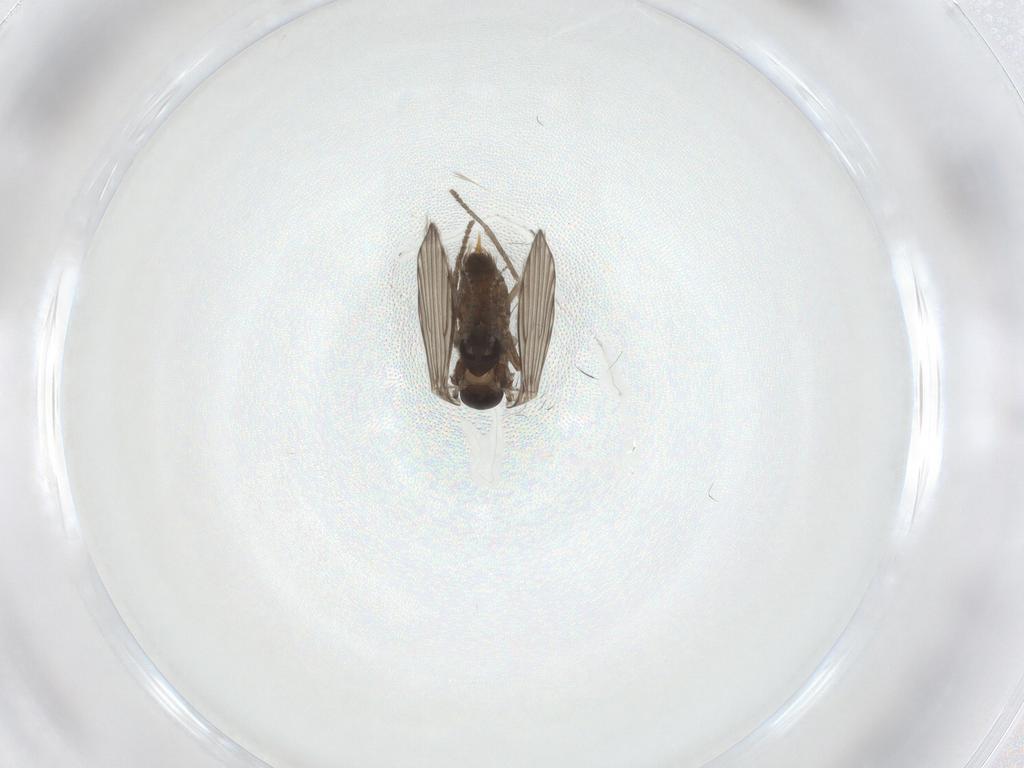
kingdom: Animalia
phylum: Arthropoda
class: Insecta
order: Diptera
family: Psychodidae
